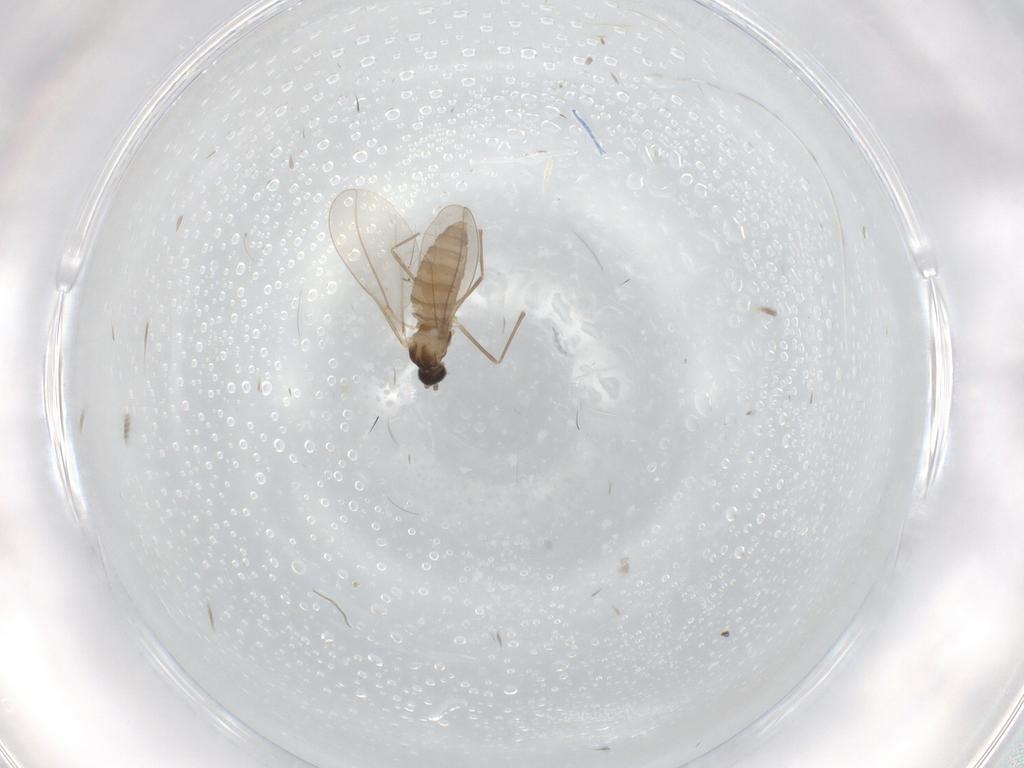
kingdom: Animalia
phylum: Arthropoda
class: Insecta
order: Diptera
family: Cecidomyiidae
